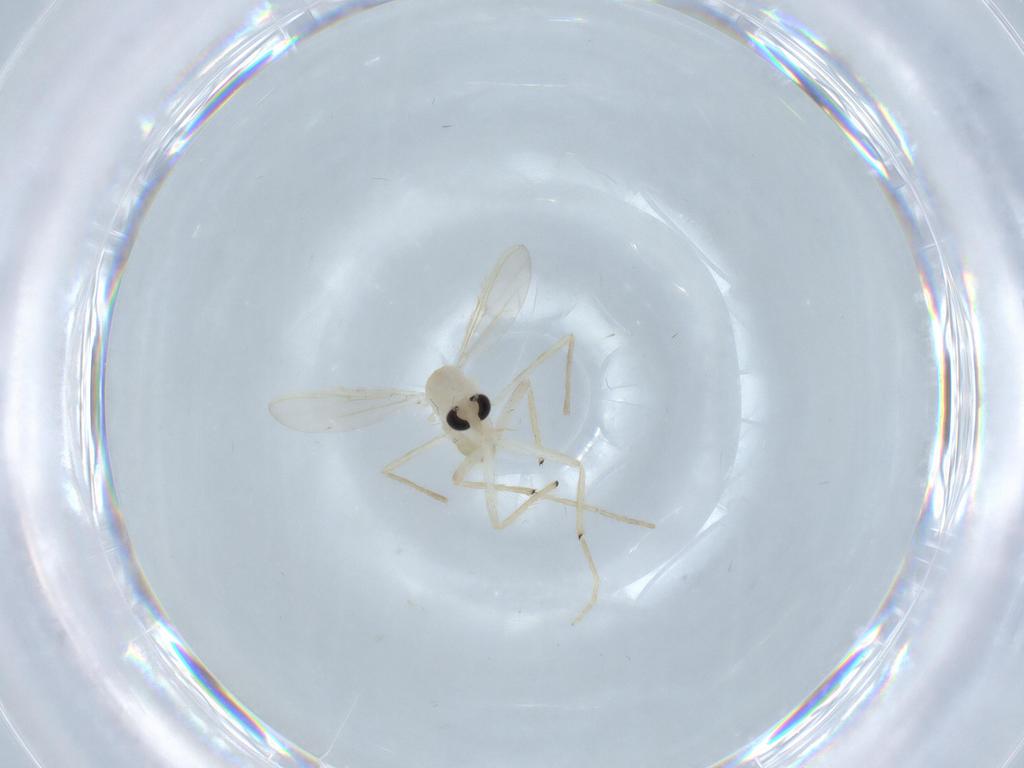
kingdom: Animalia
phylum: Arthropoda
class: Insecta
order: Diptera
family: Chironomidae
